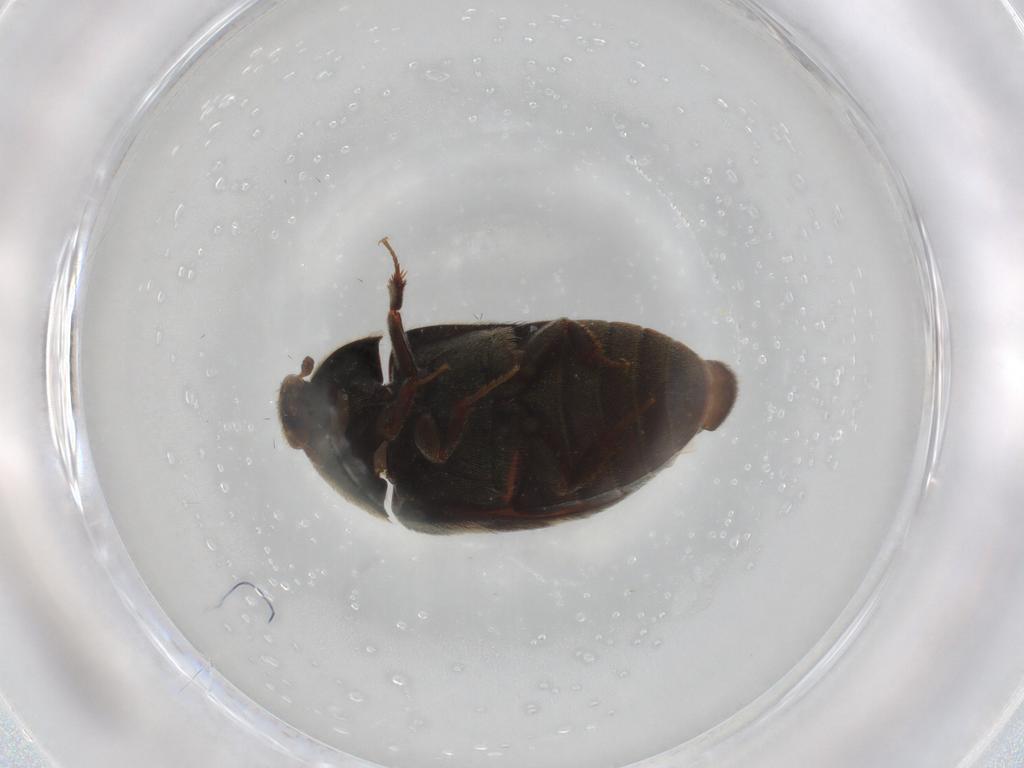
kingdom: Animalia
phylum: Arthropoda
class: Insecta
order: Coleoptera
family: Dermestidae
